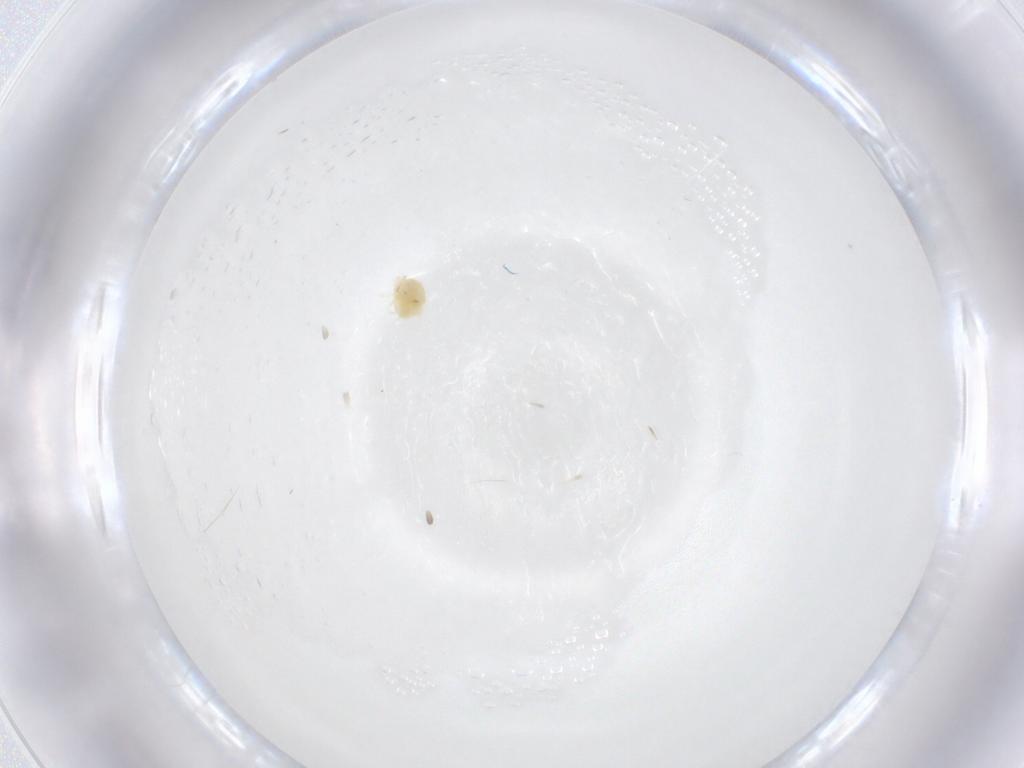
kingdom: Animalia
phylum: Arthropoda
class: Arachnida
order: Trombidiformes
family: Tetranychidae
